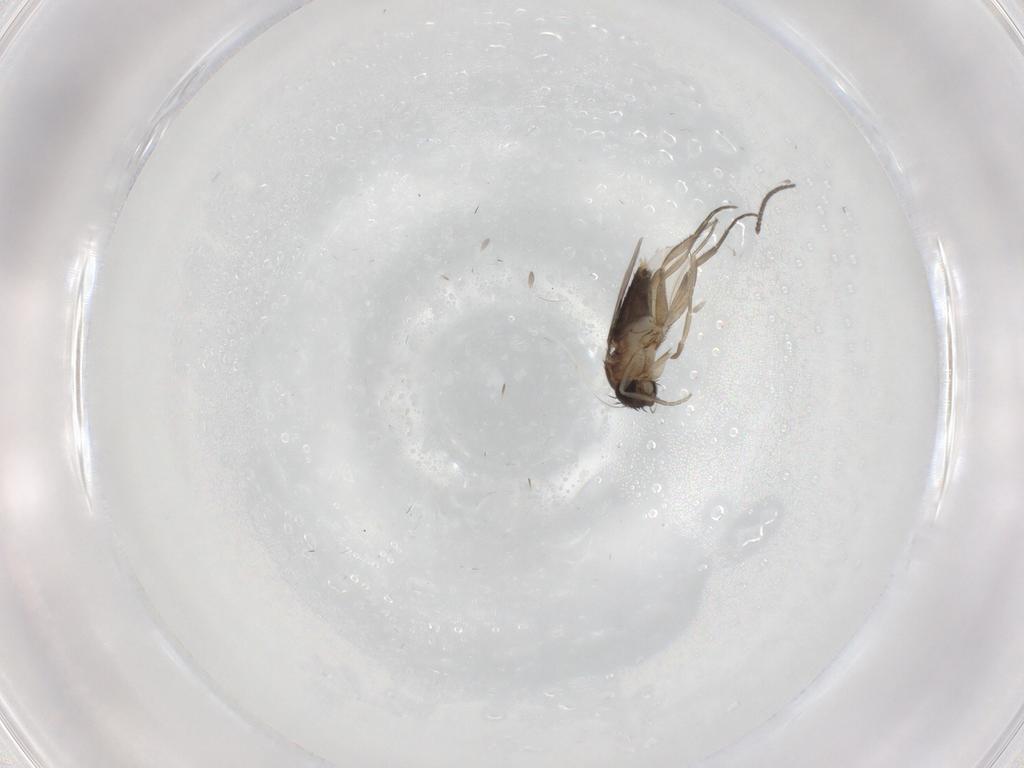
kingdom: Animalia
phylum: Arthropoda
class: Insecta
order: Diptera
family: Phoridae
